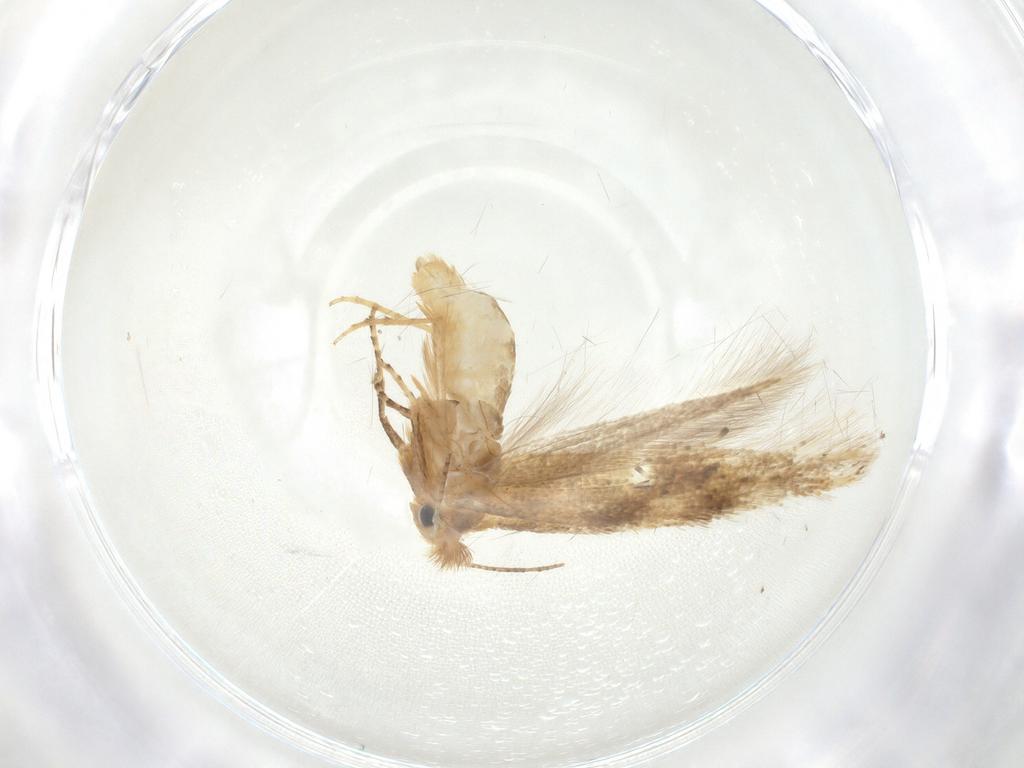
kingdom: Animalia
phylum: Arthropoda
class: Insecta
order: Lepidoptera
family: Bucculatricidae
